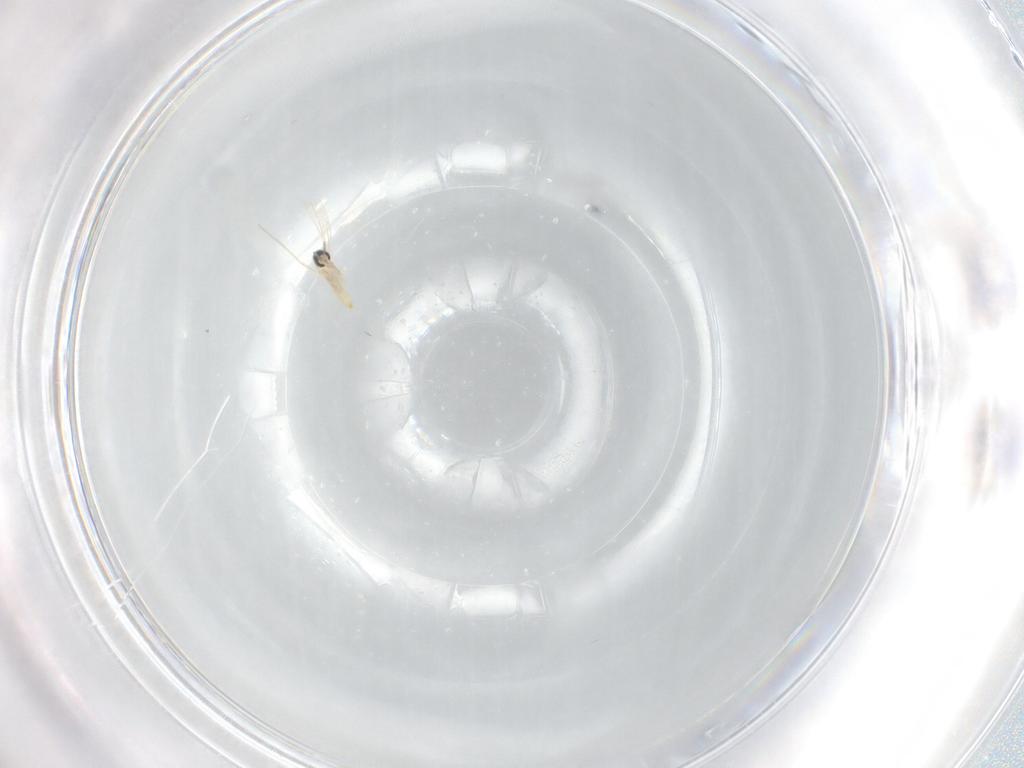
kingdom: Animalia
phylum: Arthropoda
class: Insecta
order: Diptera
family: Cecidomyiidae
